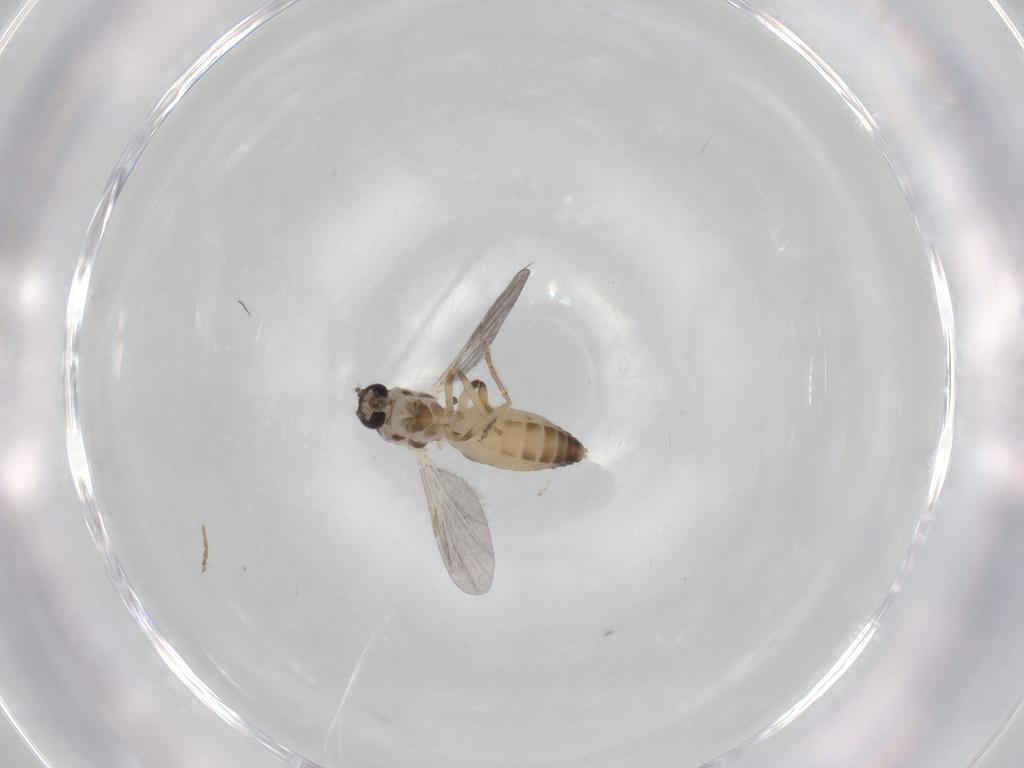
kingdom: Animalia
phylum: Arthropoda
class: Insecta
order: Diptera
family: Ceratopogonidae
